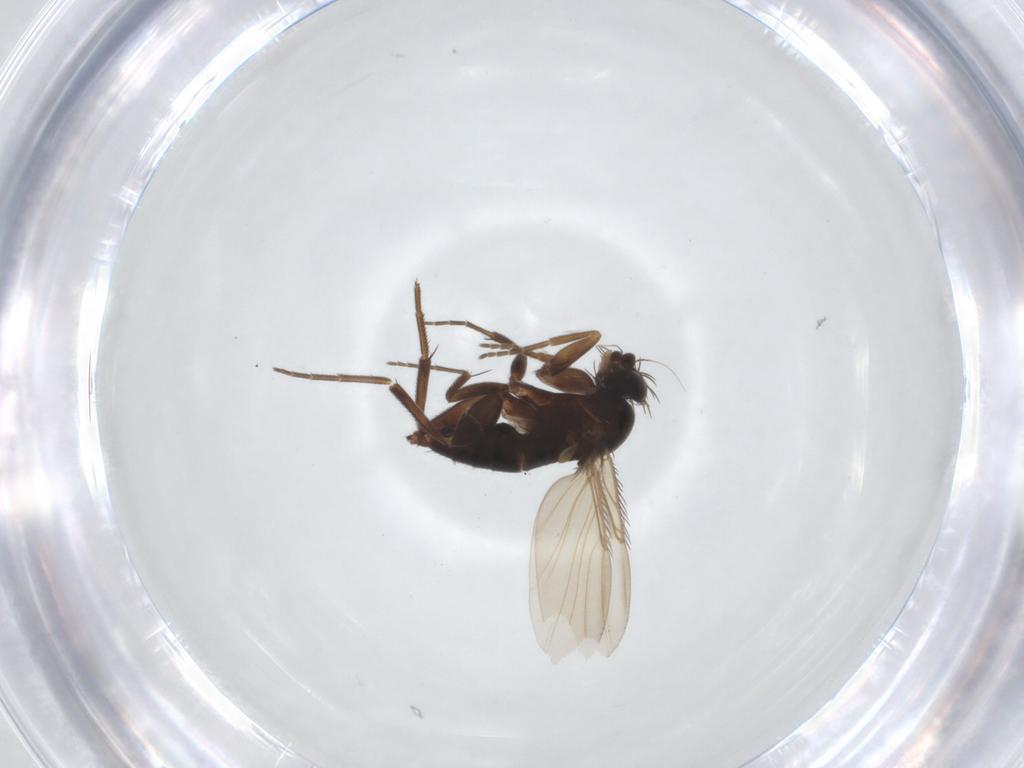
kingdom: Animalia
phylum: Arthropoda
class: Insecta
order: Diptera
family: Phoridae
